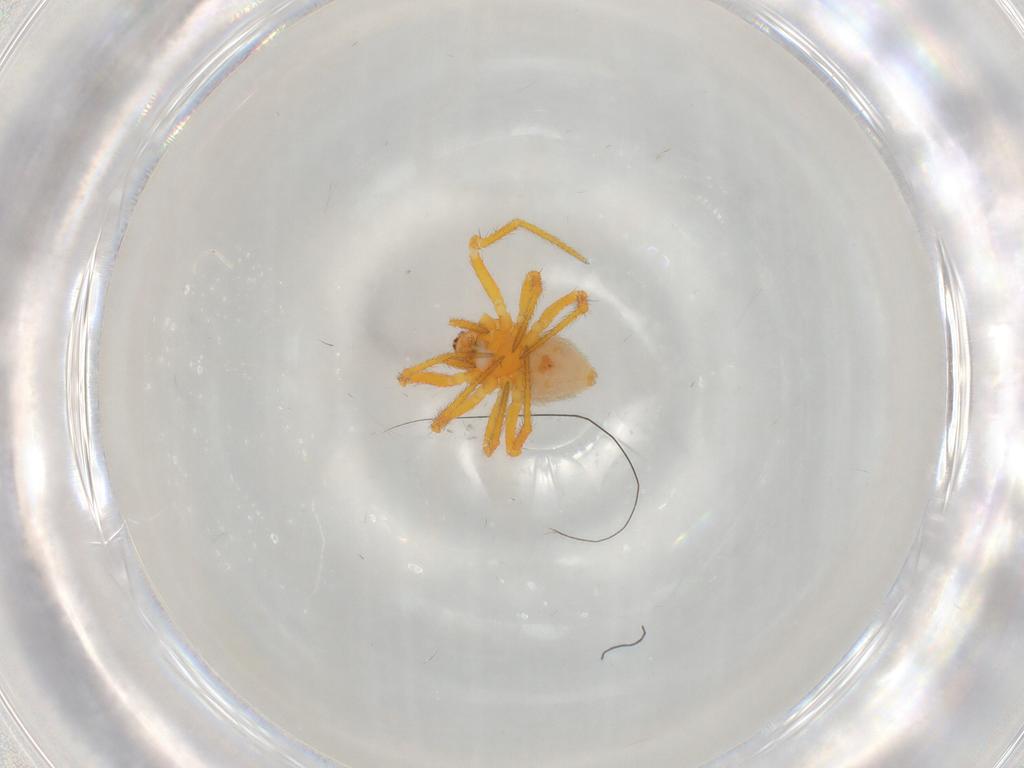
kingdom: Animalia
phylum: Arthropoda
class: Arachnida
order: Araneae
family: Theridiidae
